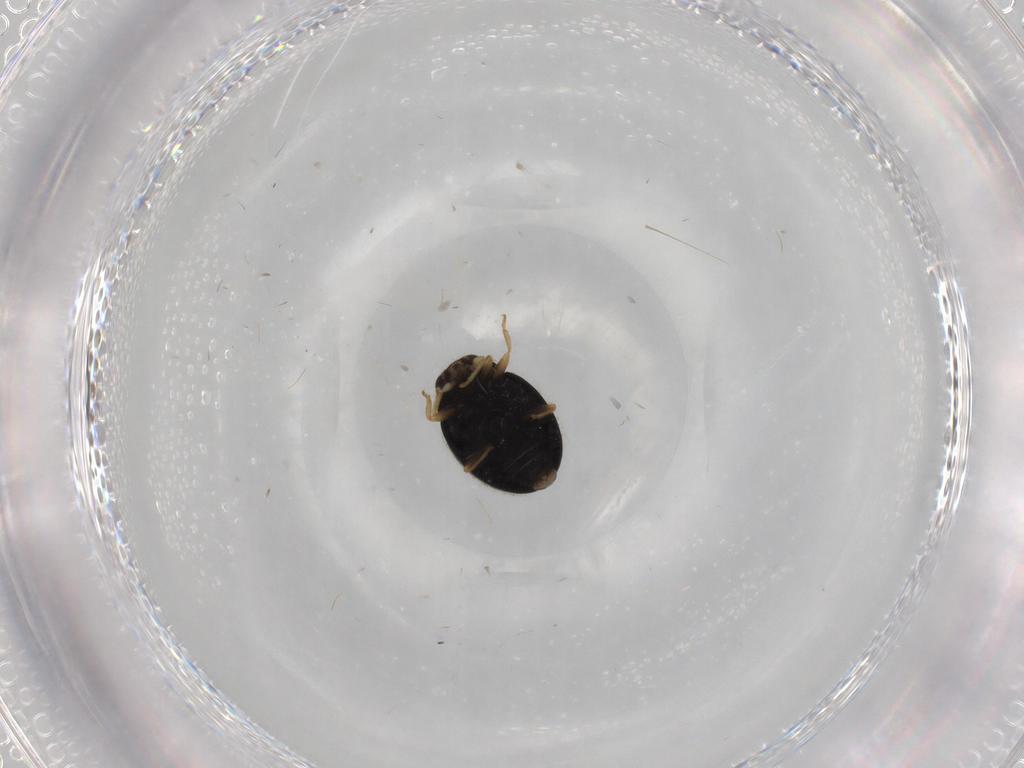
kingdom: Animalia
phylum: Arthropoda
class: Insecta
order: Coleoptera
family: Coccinellidae
